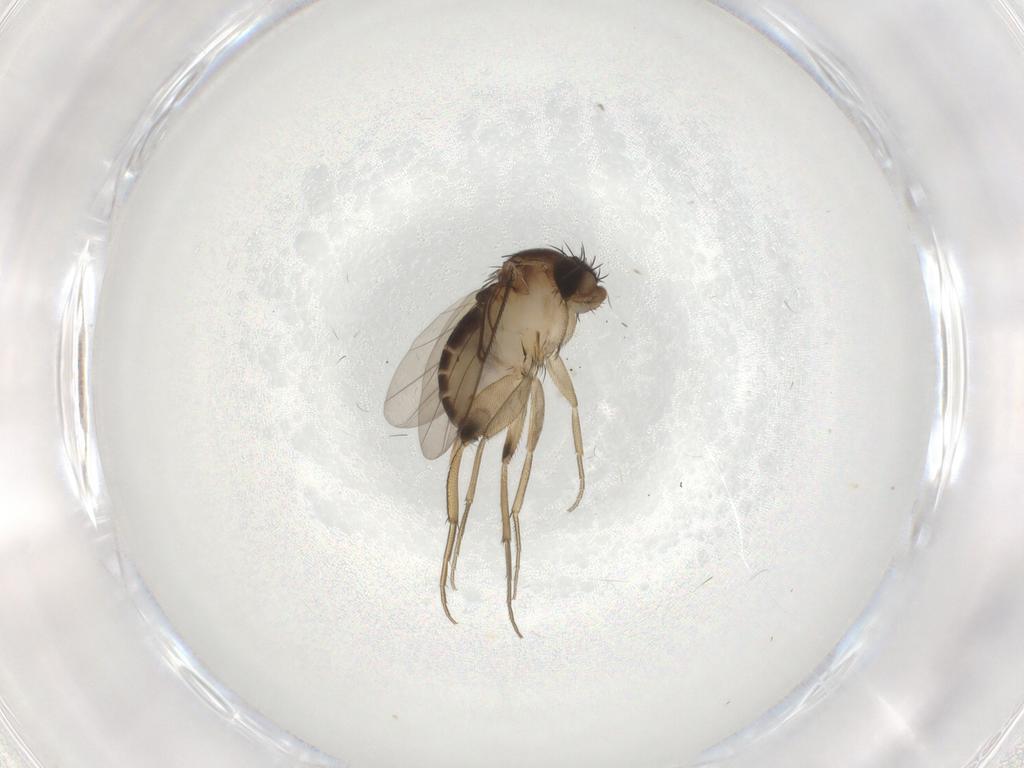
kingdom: Animalia
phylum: Arthropoda
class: Insecta
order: Diptera
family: Phoridae
